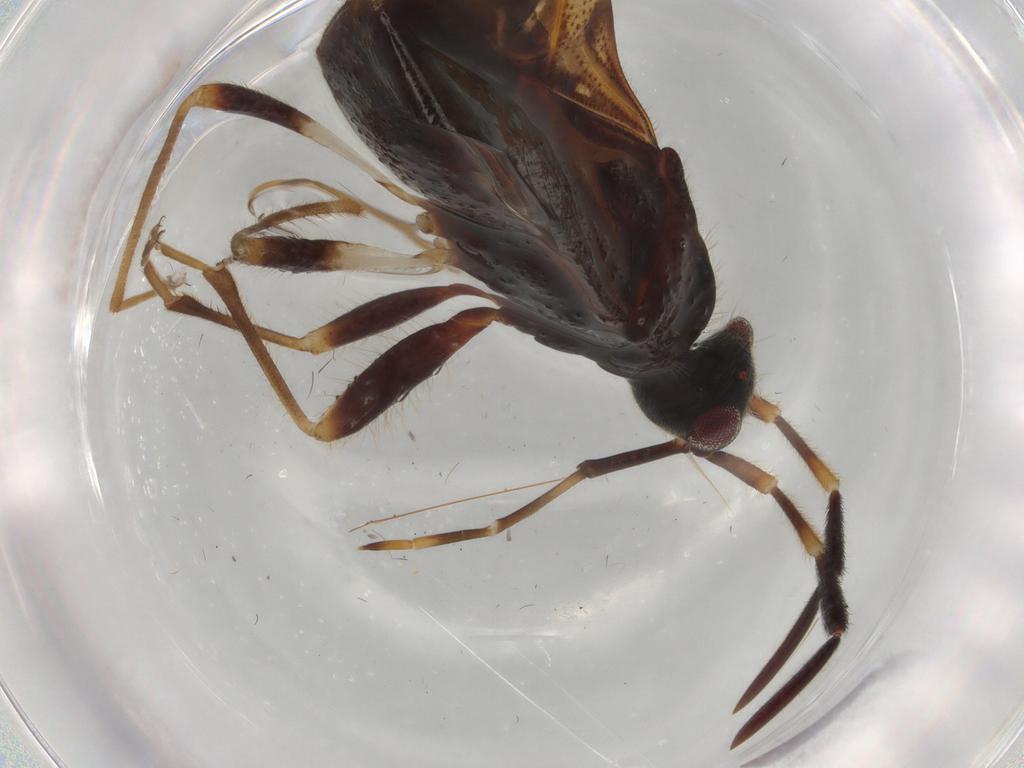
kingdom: Animalia
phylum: Arthropoda
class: Insecta
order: Hemiptera
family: Rhyparochromidae
